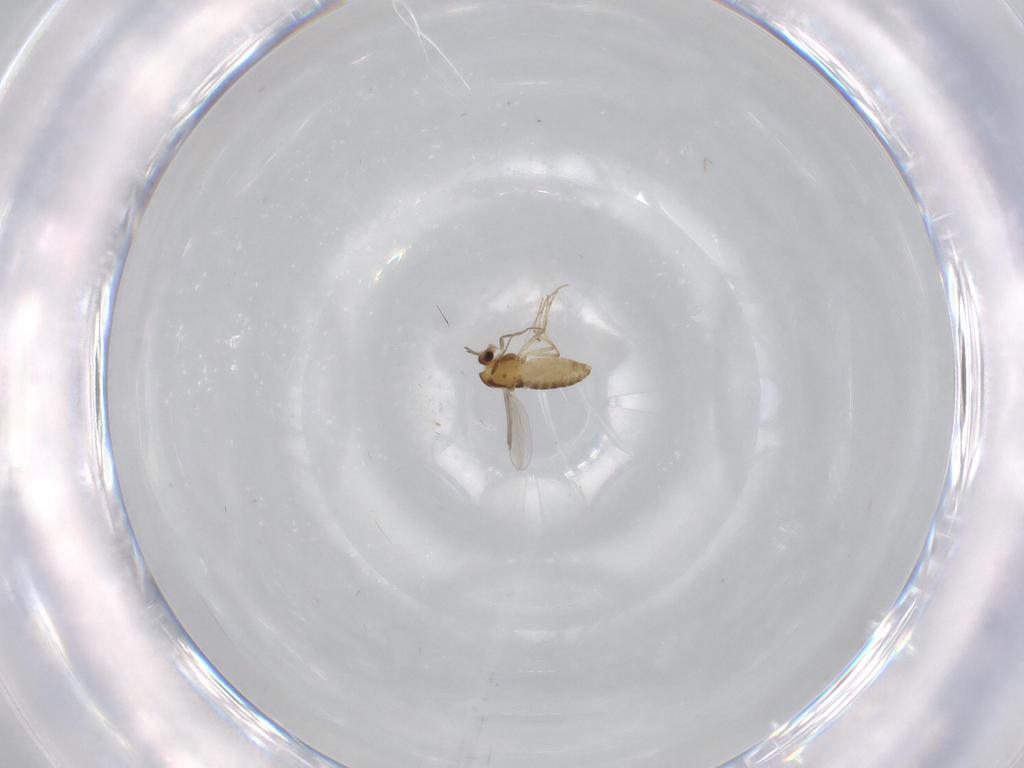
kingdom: Animalia
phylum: Arthropoda
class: Insecta
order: Diptera
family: Chironomidae
